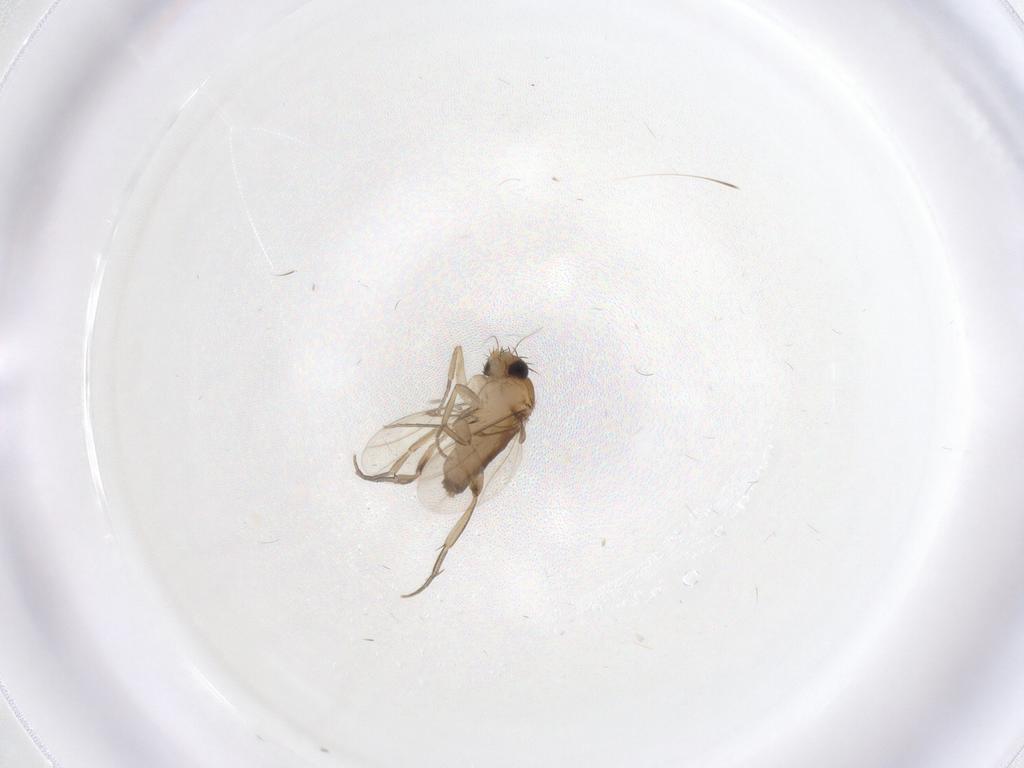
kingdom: Animalia
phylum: Arthropoda
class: Insecta
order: Diptera
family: Phoridae
